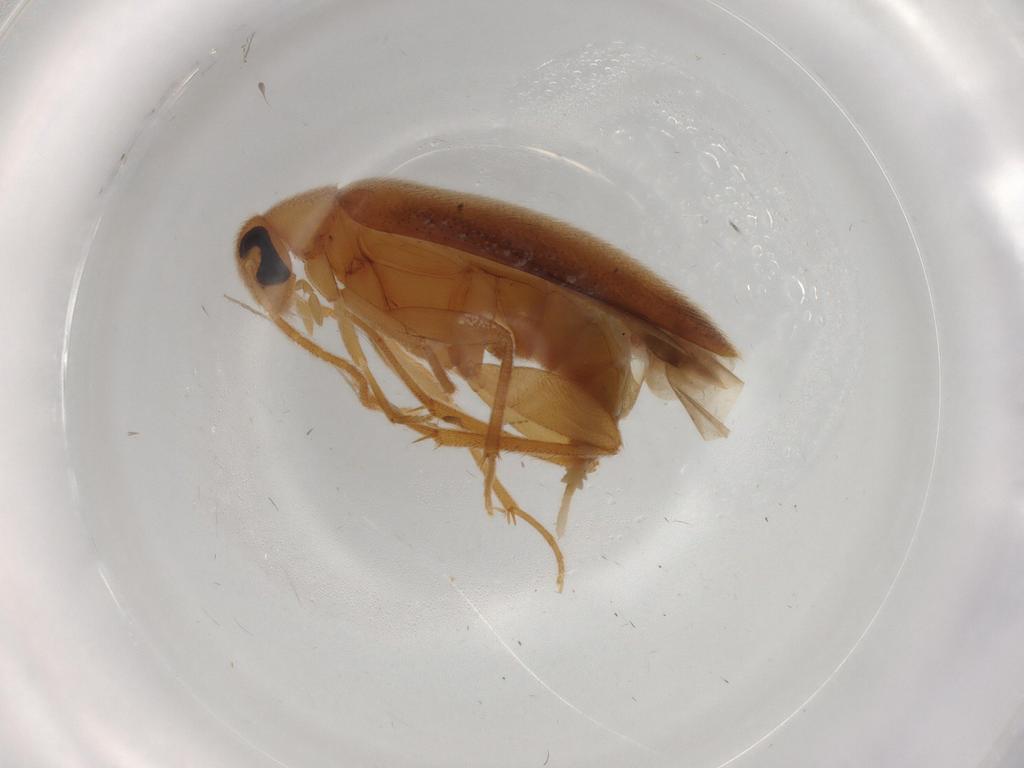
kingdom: Animalia
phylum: Arthropoda
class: Insecta
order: Coleoptera
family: Scraptiidae
